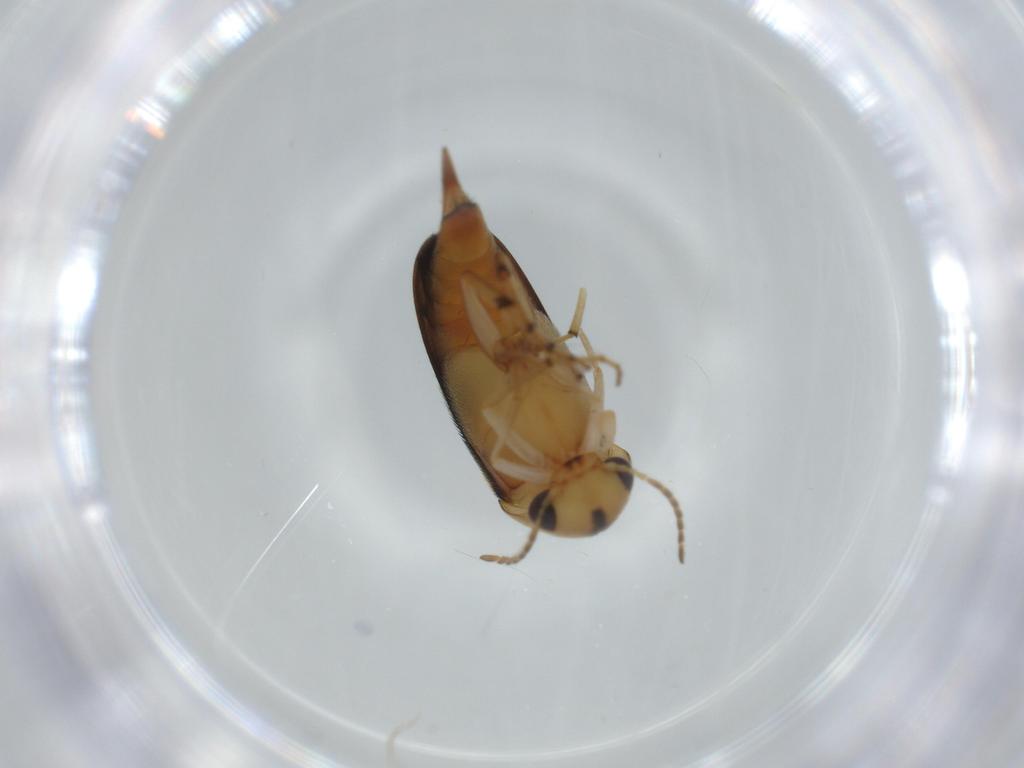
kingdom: Animalia
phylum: Arthropoda
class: Insecta
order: Coleoptera
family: Chrysomelidae
